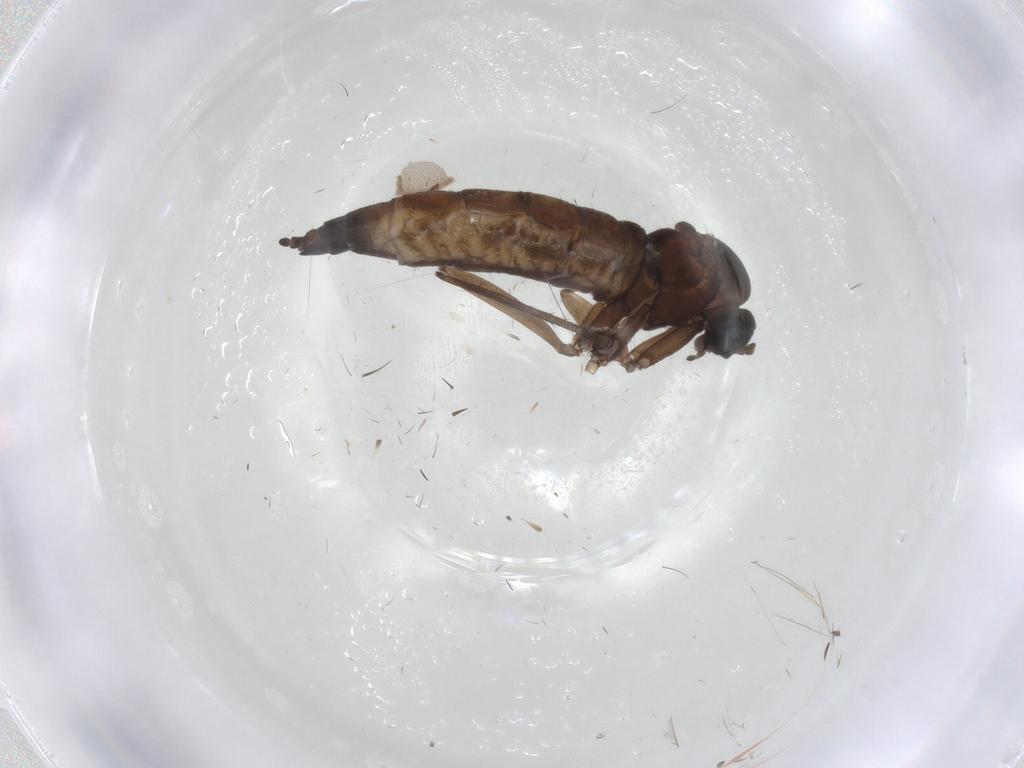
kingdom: Animalia
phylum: Arthropoda
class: Insecta
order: Diptera
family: Sciaridae
